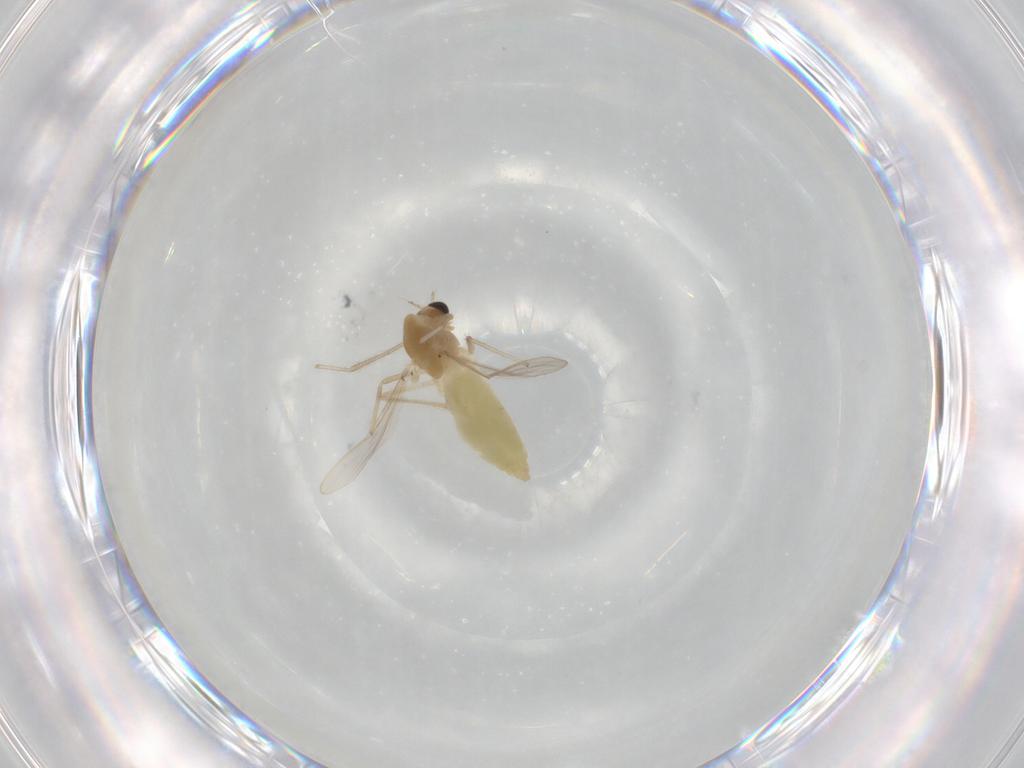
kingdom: Animalia
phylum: Arthropoda
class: Insecta
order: Diptera
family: Chironomidae
